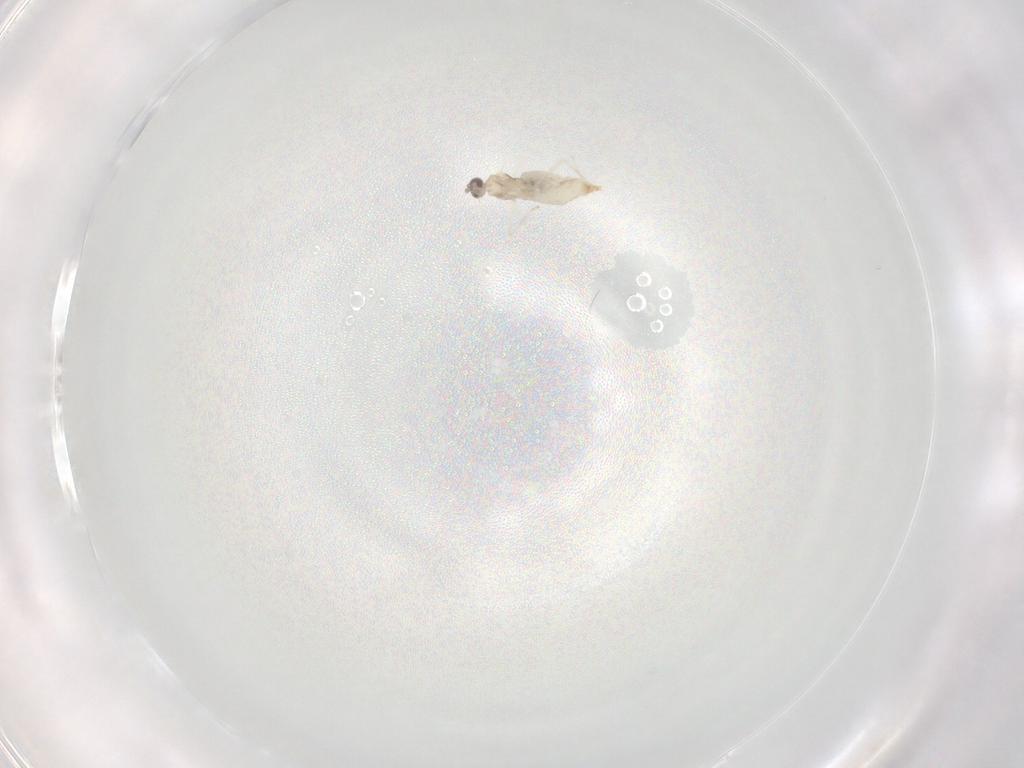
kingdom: Animalia
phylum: Arthropoda
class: Insecta
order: Diptera
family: Cecidomyiidae
